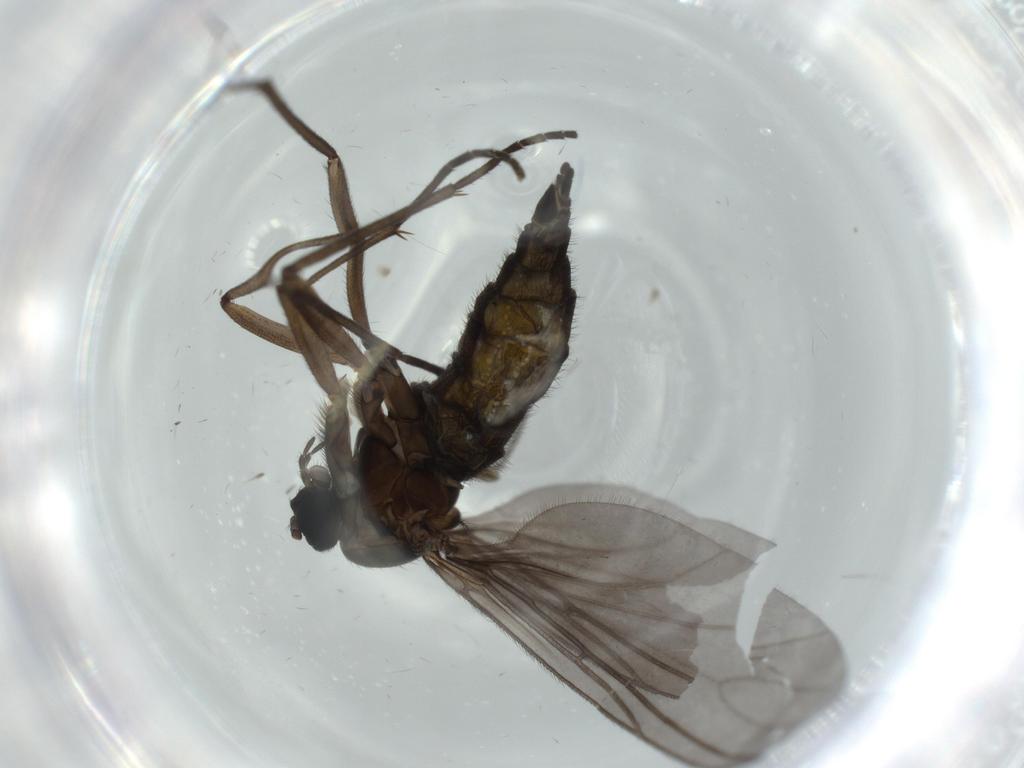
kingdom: Animalia
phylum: Arthropoda
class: Insecta
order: Diptera
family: Sciaridae
